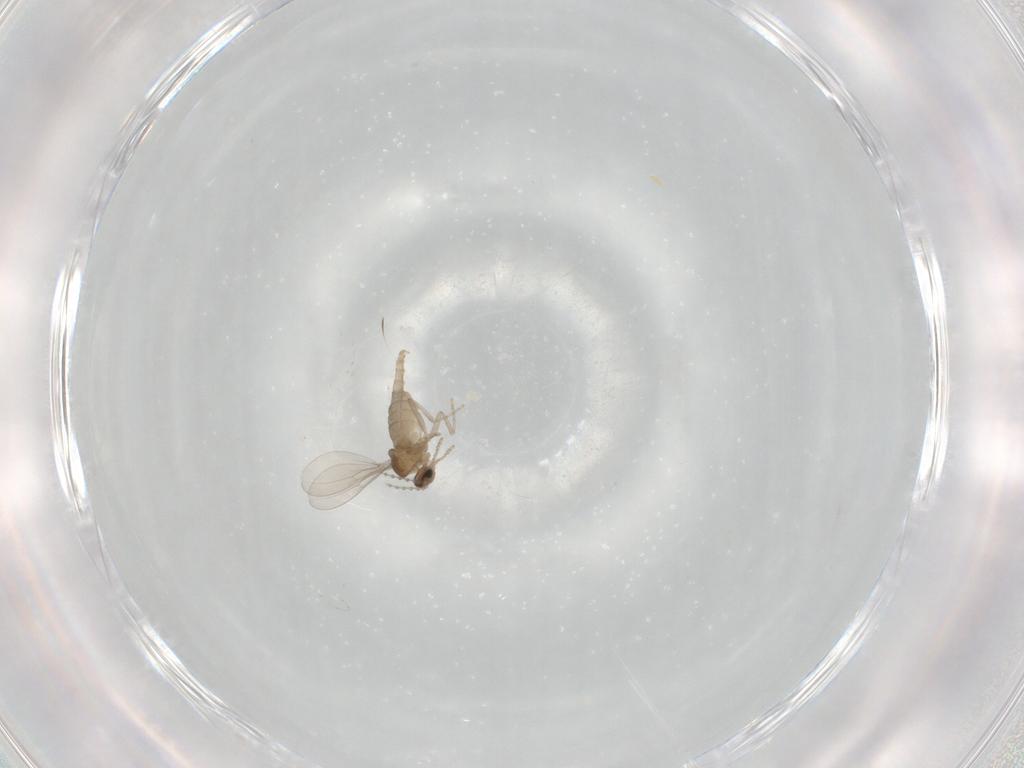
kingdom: Animalia
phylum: Arthropoda
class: Insecta
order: Diptera
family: Cecidomyiidae
